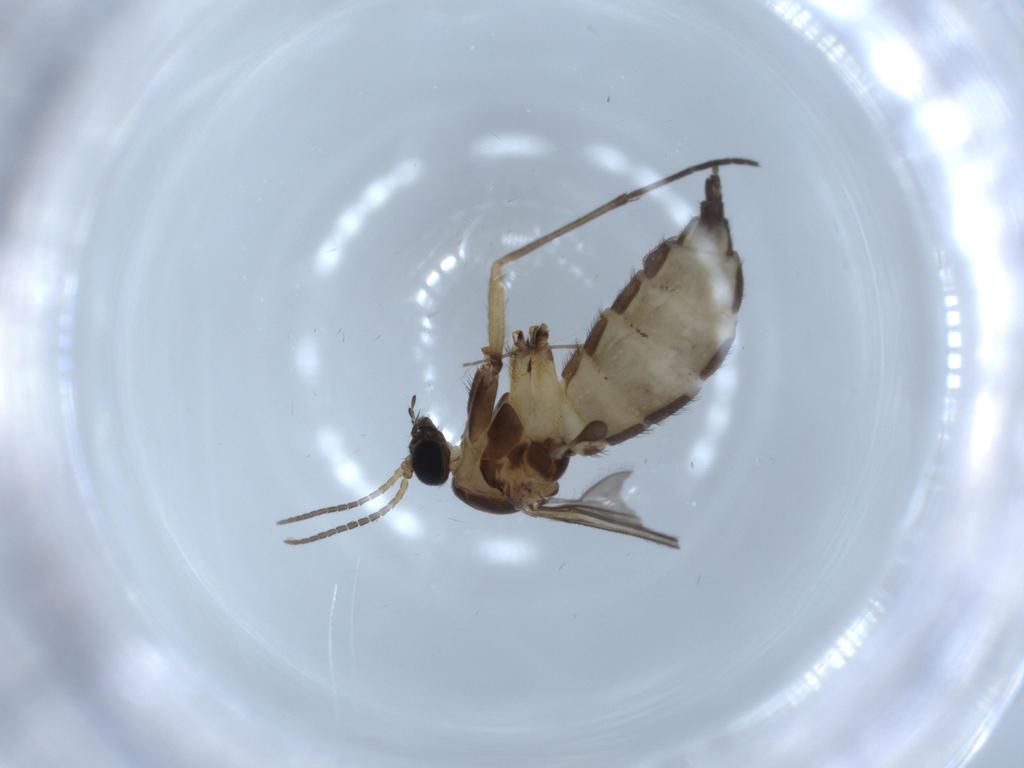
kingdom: Animalia
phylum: Arthropoda
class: Insecta
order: Diptera
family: Sciaridae
